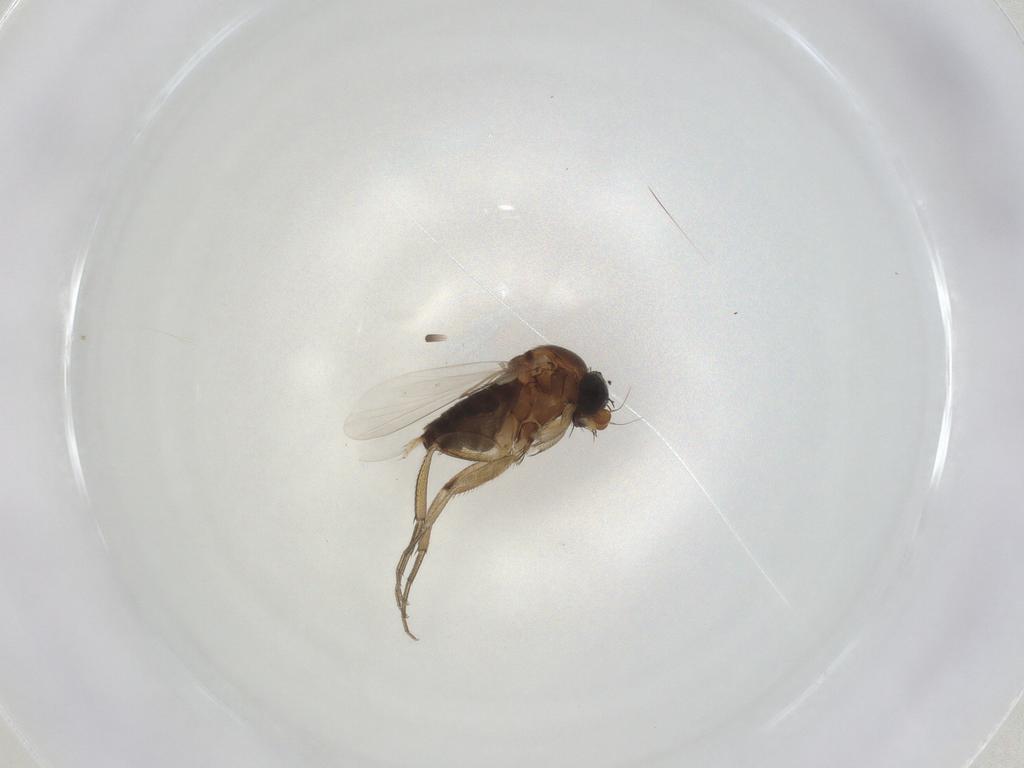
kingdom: Animalia
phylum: Arthropoda
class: Insecta
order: Diptera
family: Phoridae
